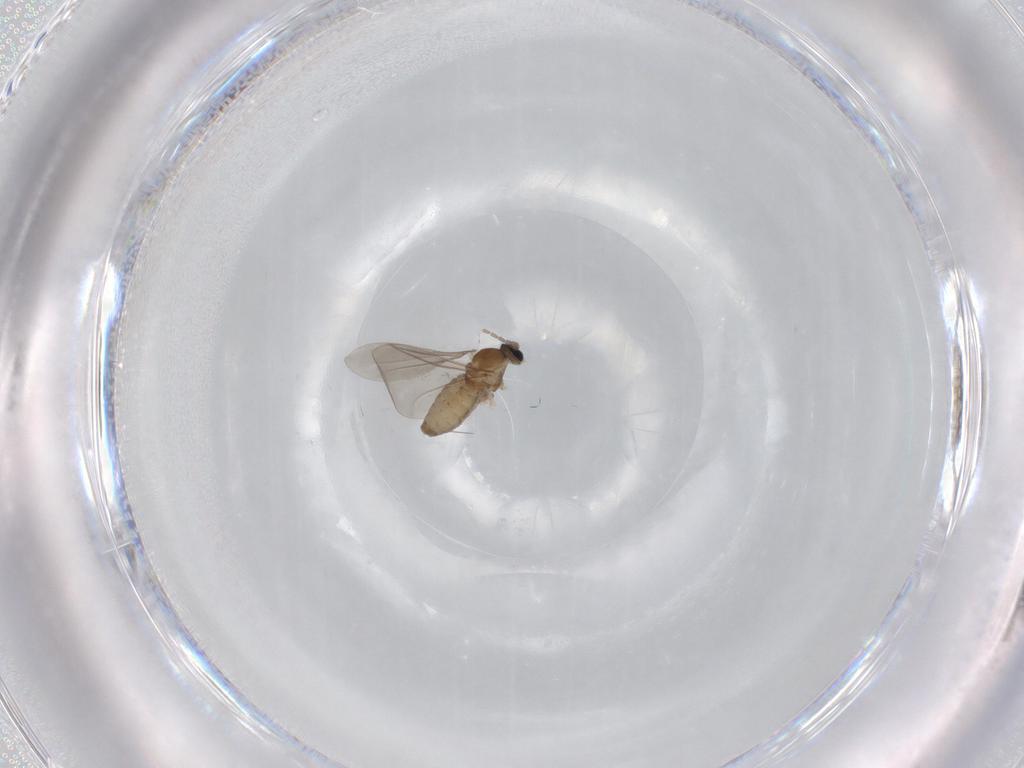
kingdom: Animalia
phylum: Arthropoda
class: Insecta
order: Diptera
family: Cecidomyiidae
